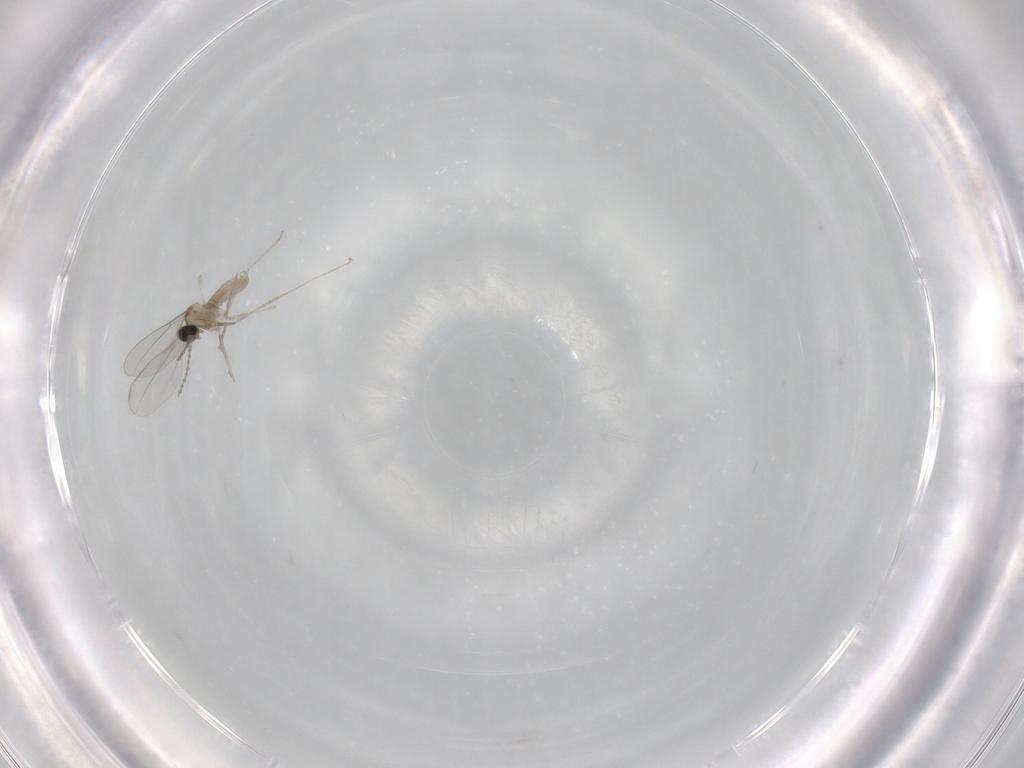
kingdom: Animalia
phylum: Arthropoda
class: Insecta
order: Diptera
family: Cecidomyiidae
